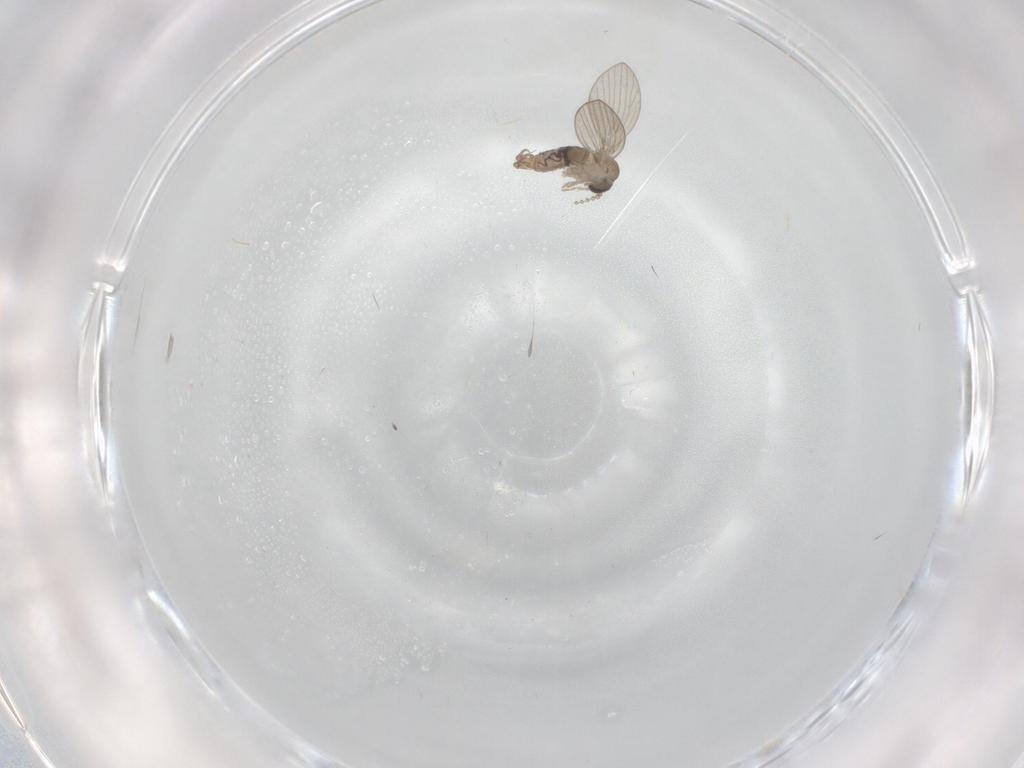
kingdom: Animalia
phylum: Arthropoda
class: Insecta
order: Diptera
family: Psychodidae
